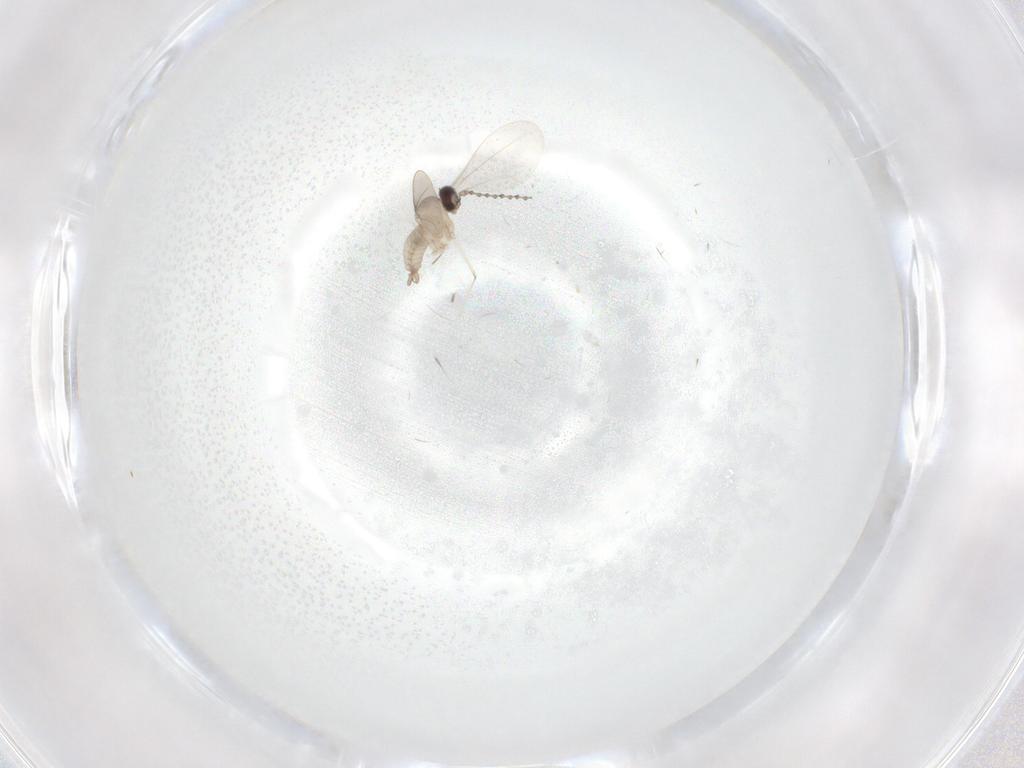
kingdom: Animalia
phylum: Arthropoda
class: Insecta
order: Diptera
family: Cecidomyiidae
